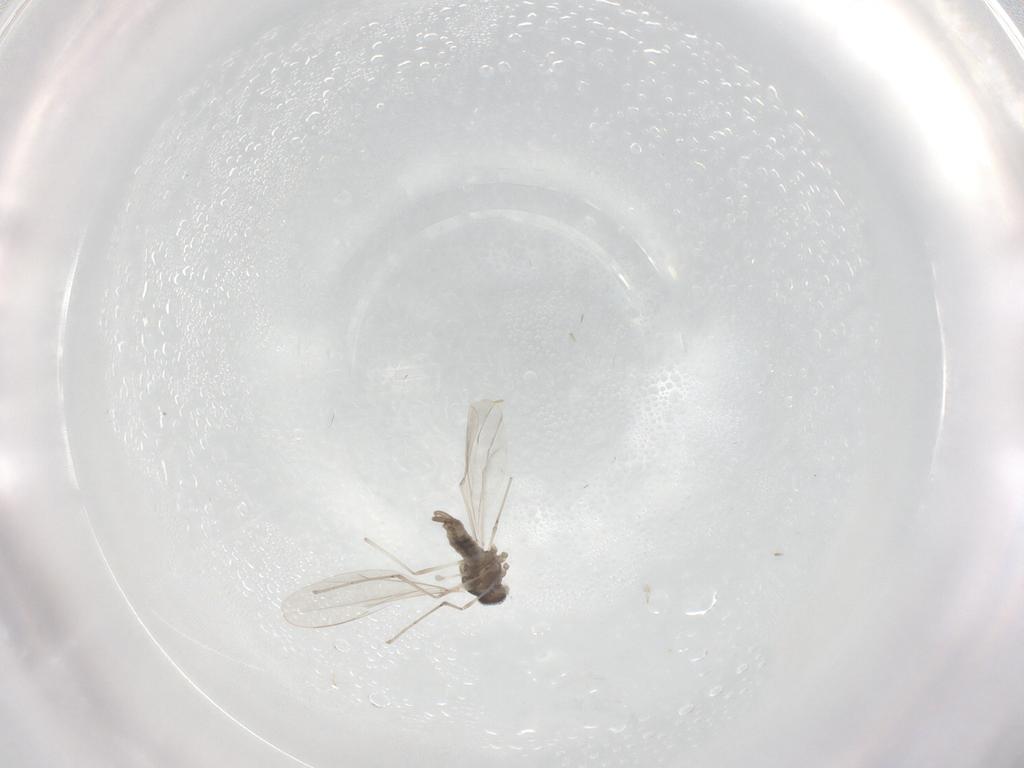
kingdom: Animalia
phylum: Arthropoda
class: Insecta
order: Diptera
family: Cecidomyiidae
